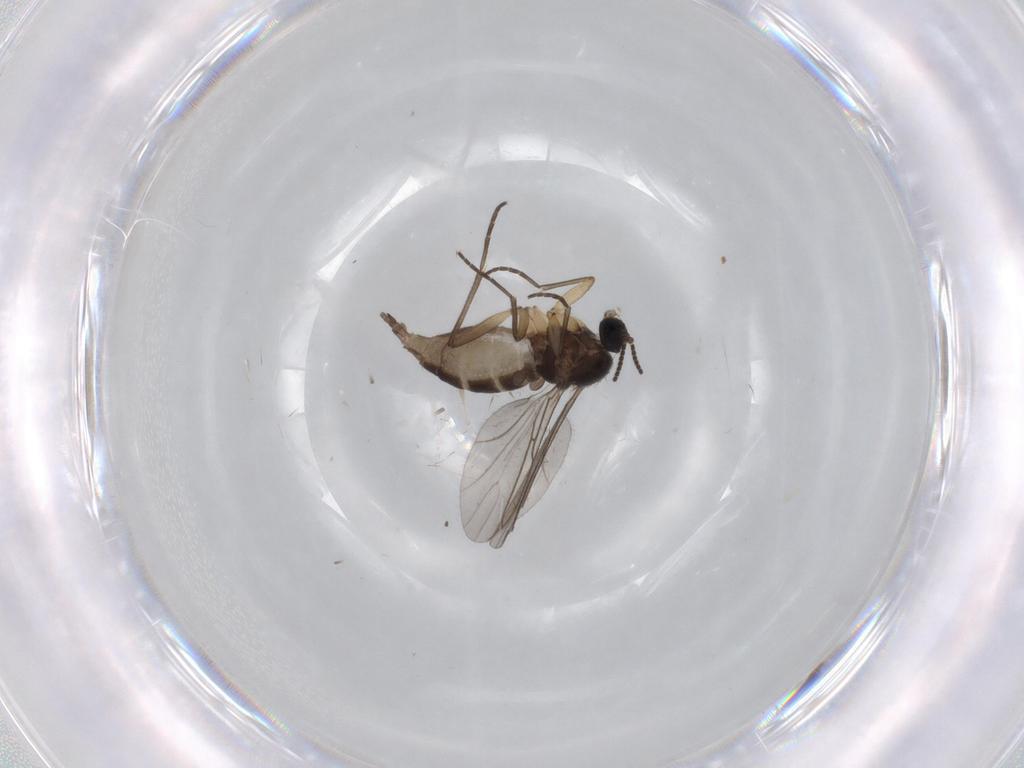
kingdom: Animalia
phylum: Arthropoda
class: Insecta
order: Diptera
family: Sciaridae
